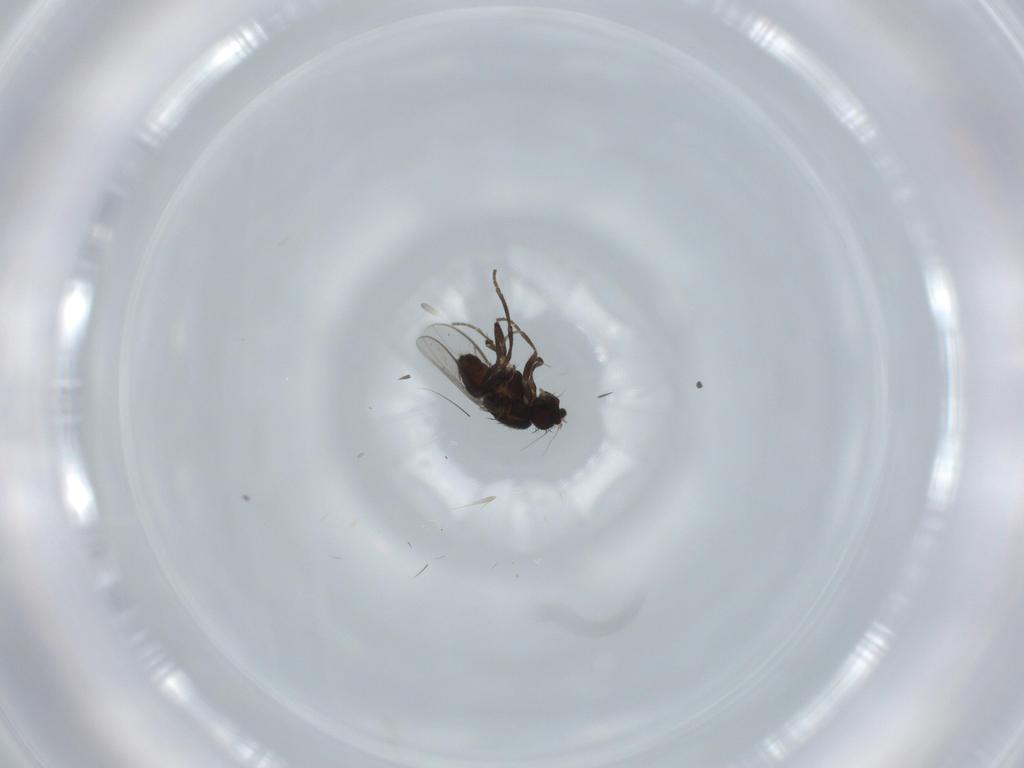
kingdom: Animalia
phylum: Arthropoda
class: Insecta
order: Diptera
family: Sphaeroceridae
